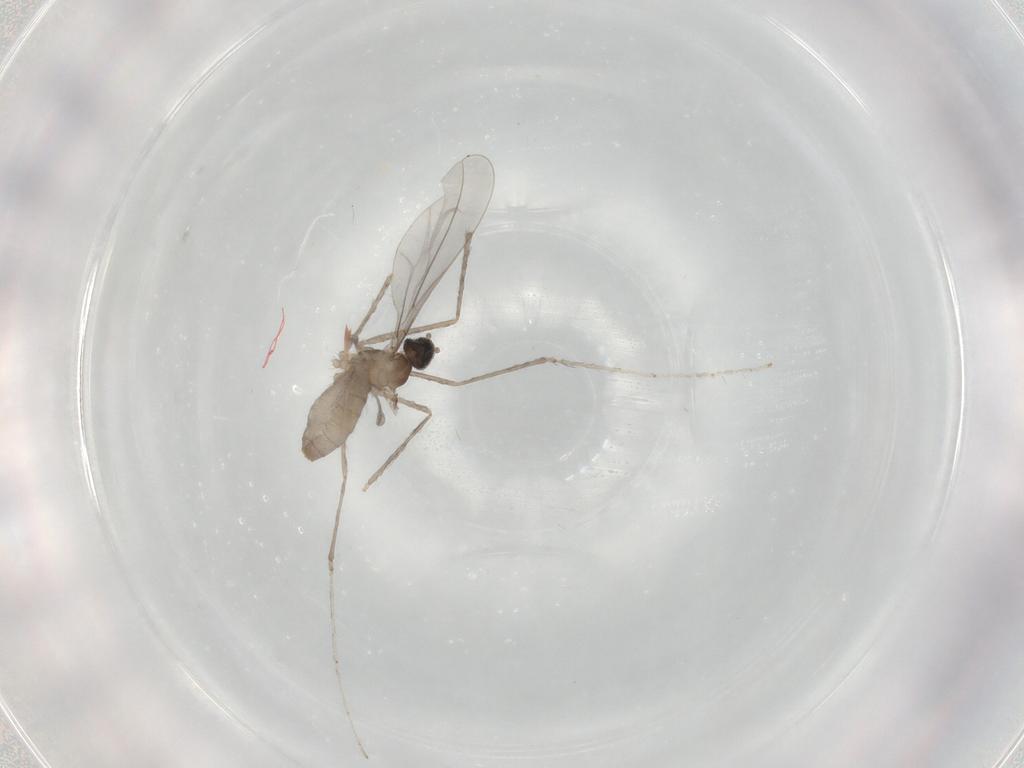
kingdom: Animalia
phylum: Arthropoda
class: Insecta
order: Diptera
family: Cecidomyiidae
